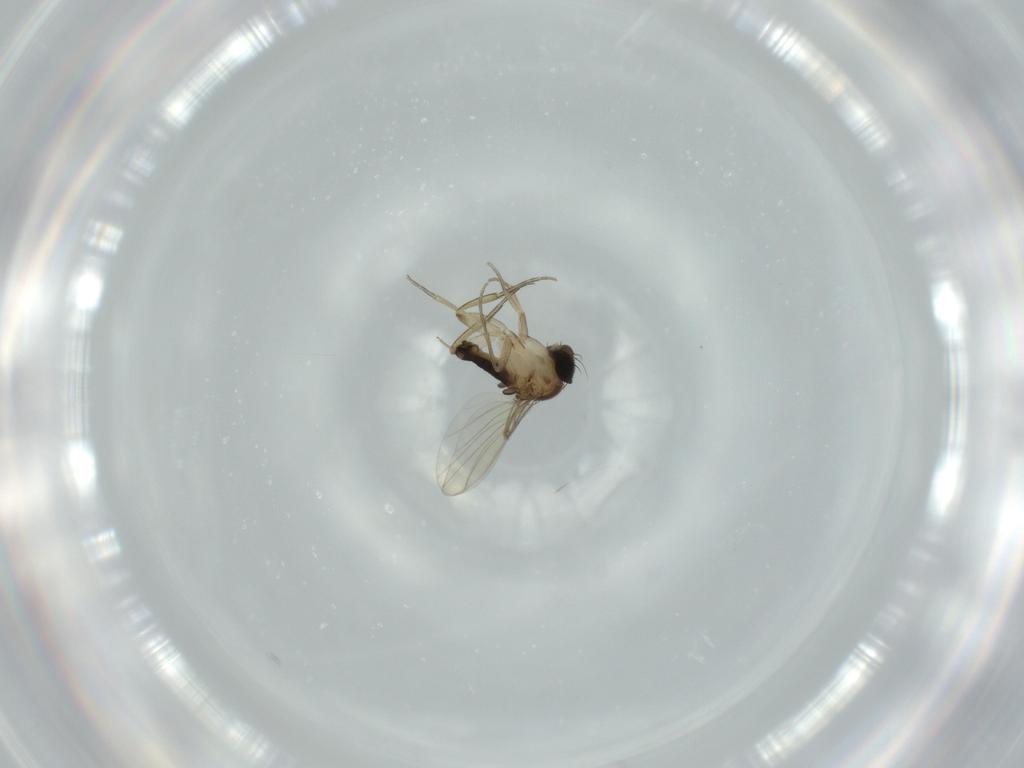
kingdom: Animalia
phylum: Arthropoda
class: Insecta
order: Diptera
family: Phoridae
